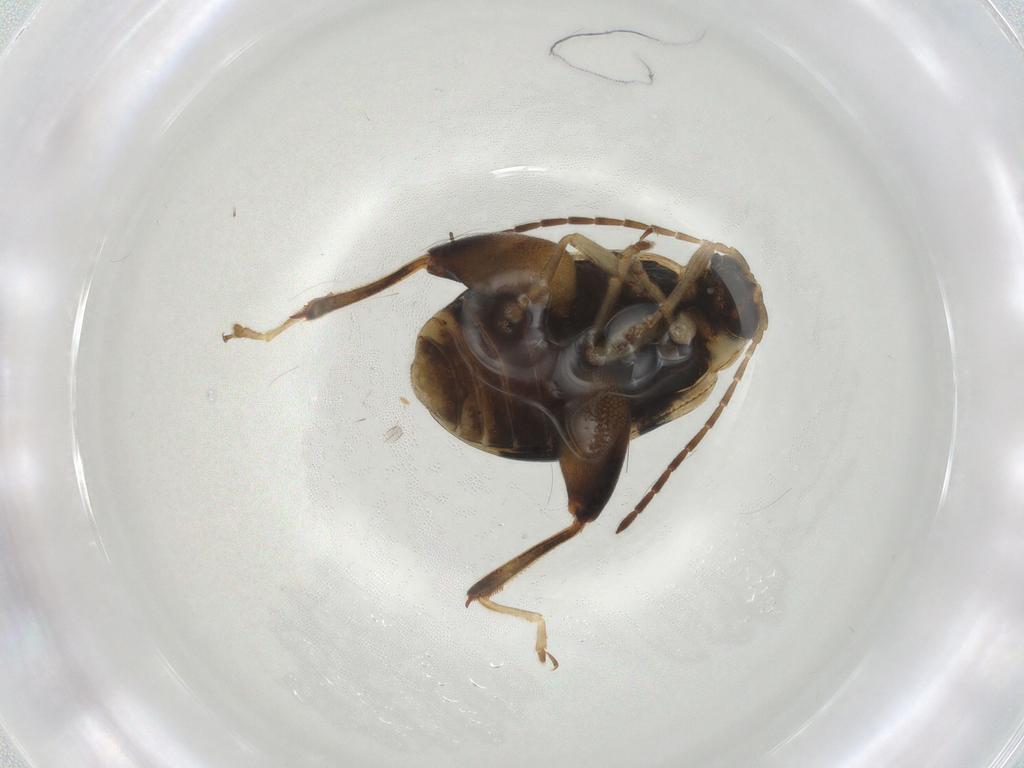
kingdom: Animalia
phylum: Arthropoda
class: Insecta
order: Coleoptera
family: Chrysomelidae
